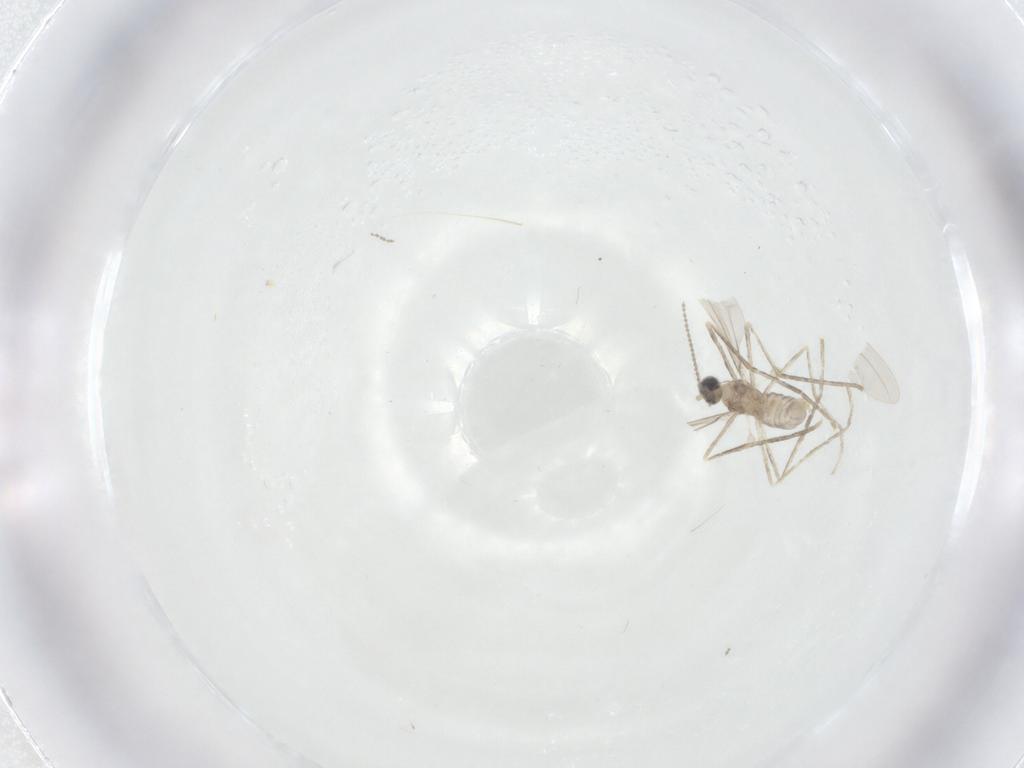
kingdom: Animalia
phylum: Arthropoda
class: Insecta
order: Diptera
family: Cecidomyiidae
